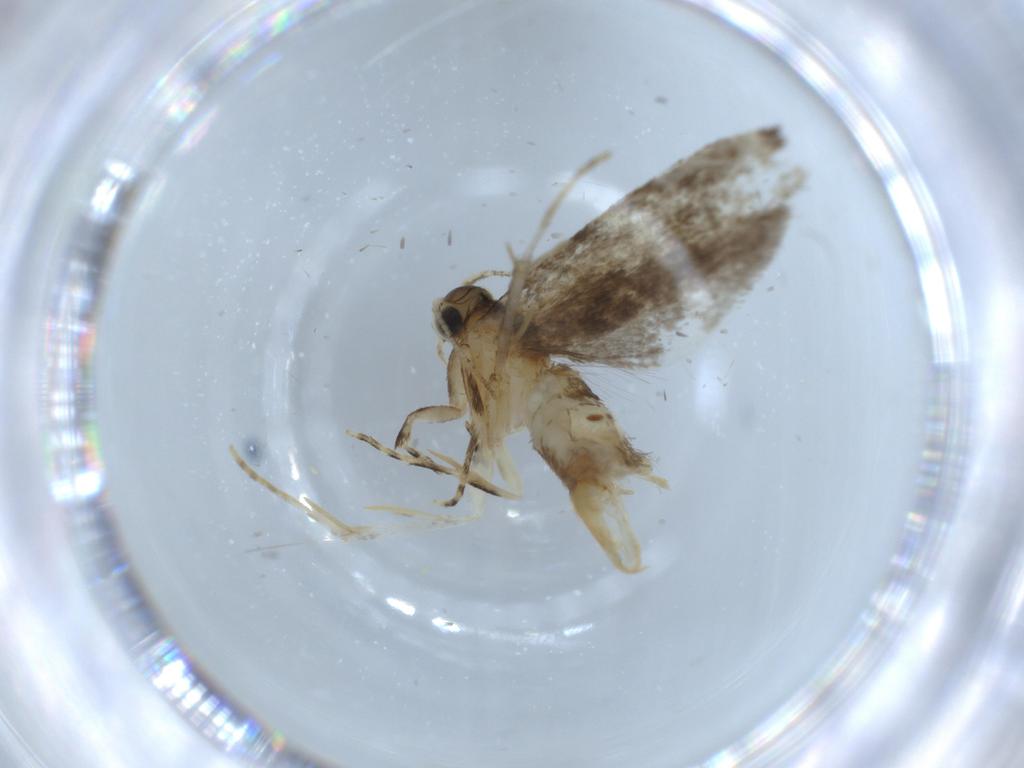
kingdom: Animalia
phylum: Arthropoda
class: Insecta
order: Lepidoptera
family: Tineidae
